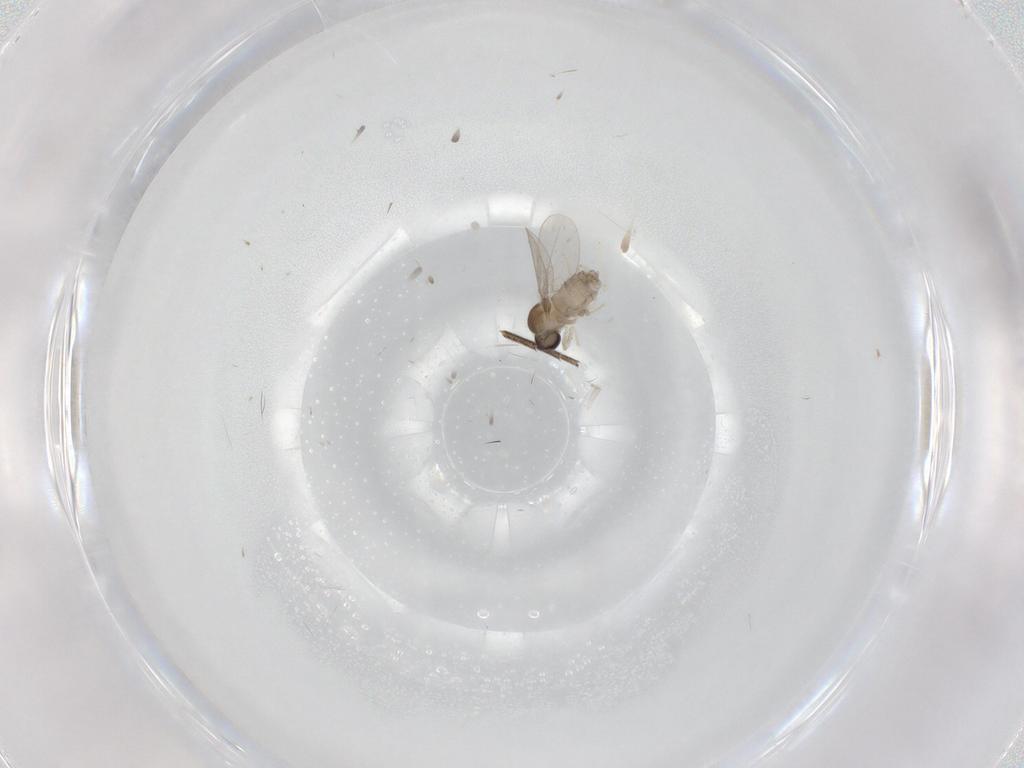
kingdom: Animalia
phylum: Arthropoda
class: Insecta
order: Diptera
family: Cecidomyiidae
